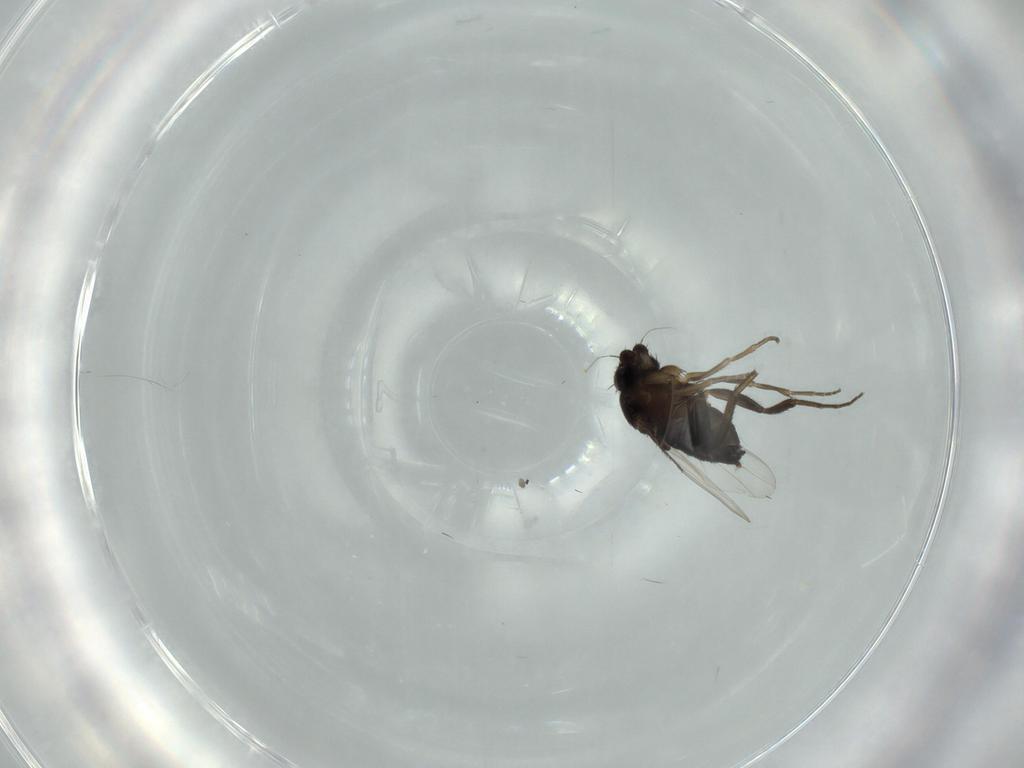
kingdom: Animalia
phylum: Arthropoda
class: Insecta
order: Diptera
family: Phoridae
